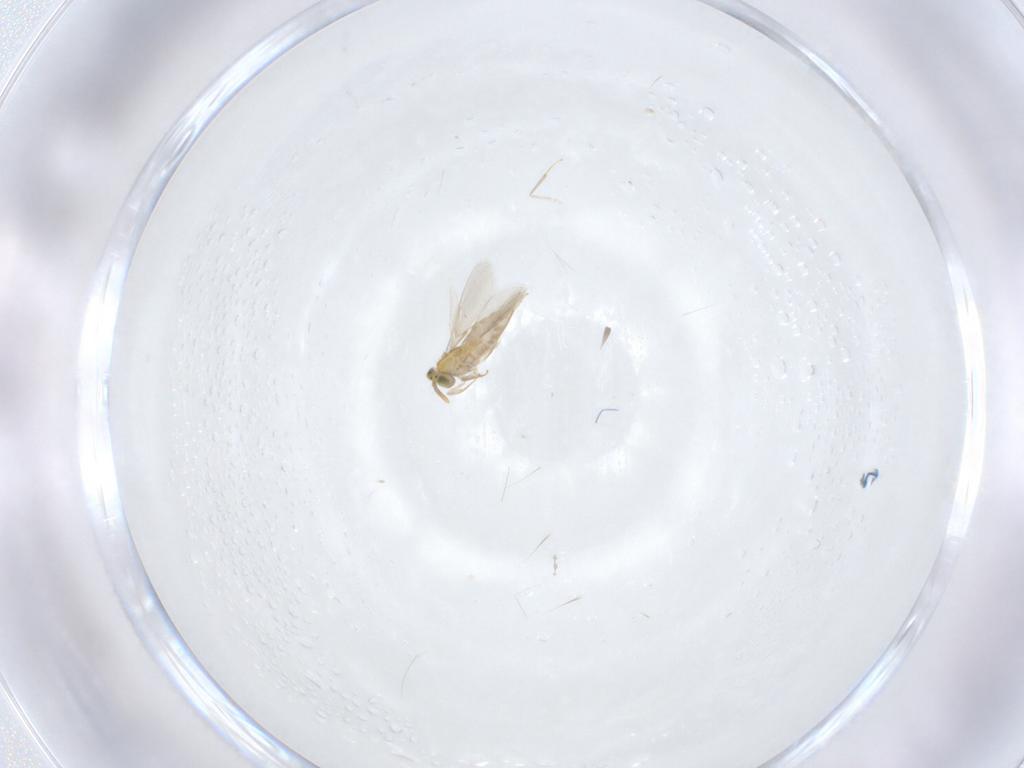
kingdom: Animalia
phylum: Arthropoda
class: Insecta
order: Hymenoptera
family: Aphelinidae
